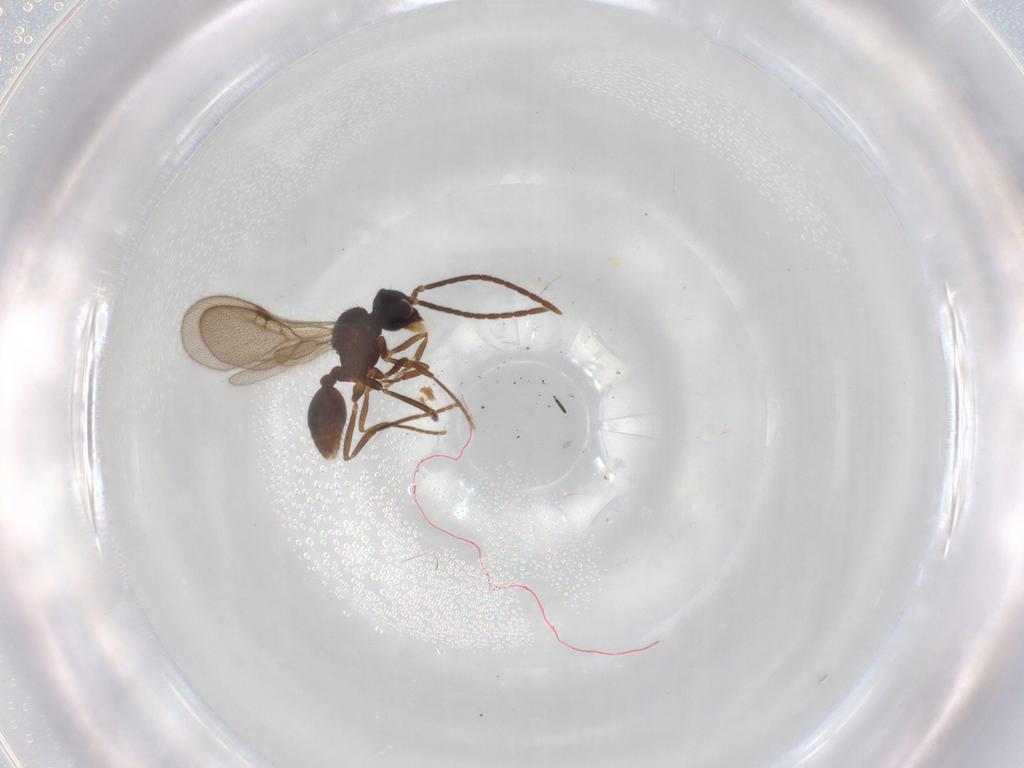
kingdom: Animalia
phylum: Arthropoda
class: Insecta
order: Hymenoptera
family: Formicidae
